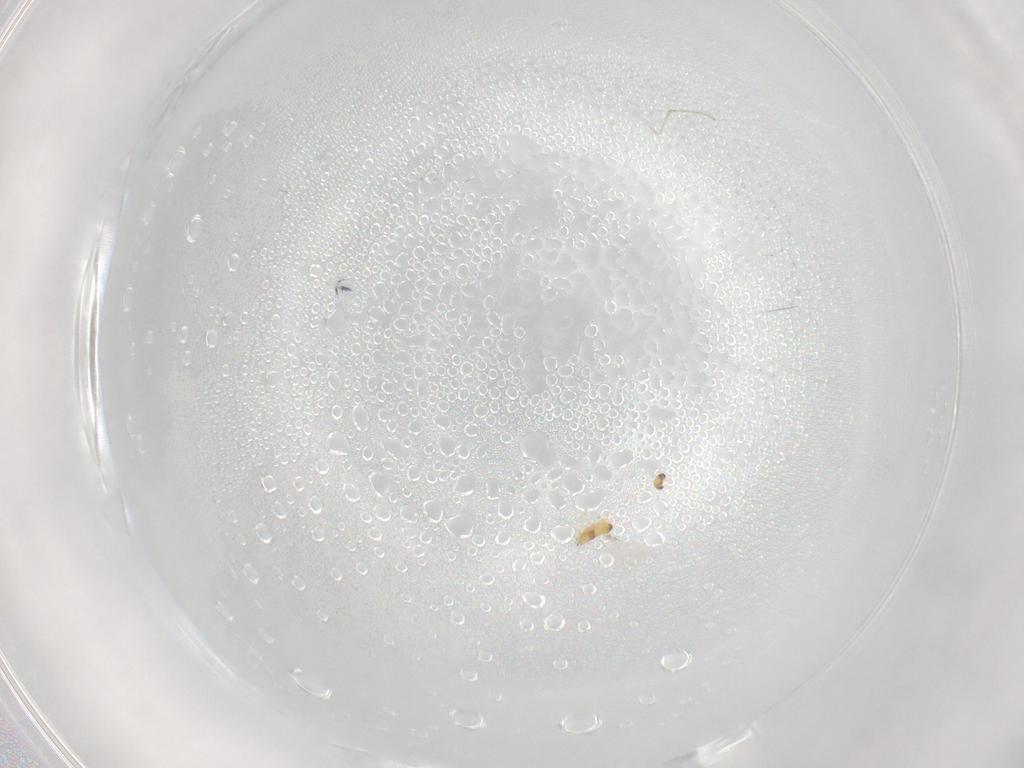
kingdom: Animalia
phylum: Arthropoda
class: Insecta
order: Hymenoptera
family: Mymaridae
